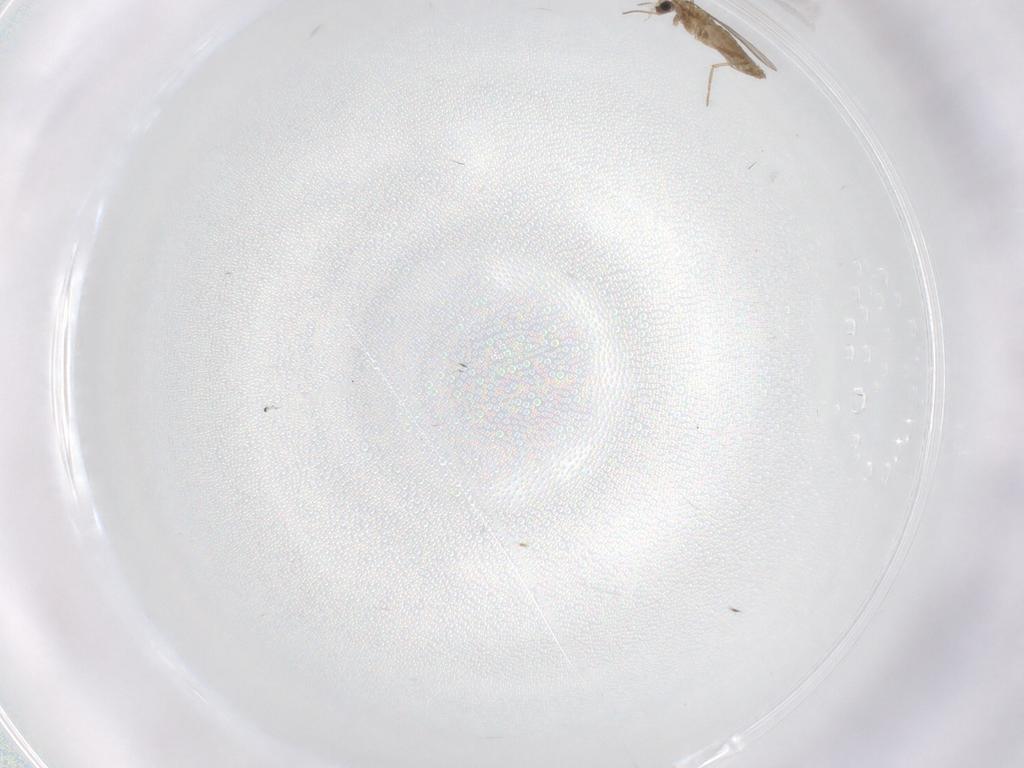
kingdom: Animalia
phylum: Arthropoda
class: Insecta
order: Diptera
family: Chironomidae
